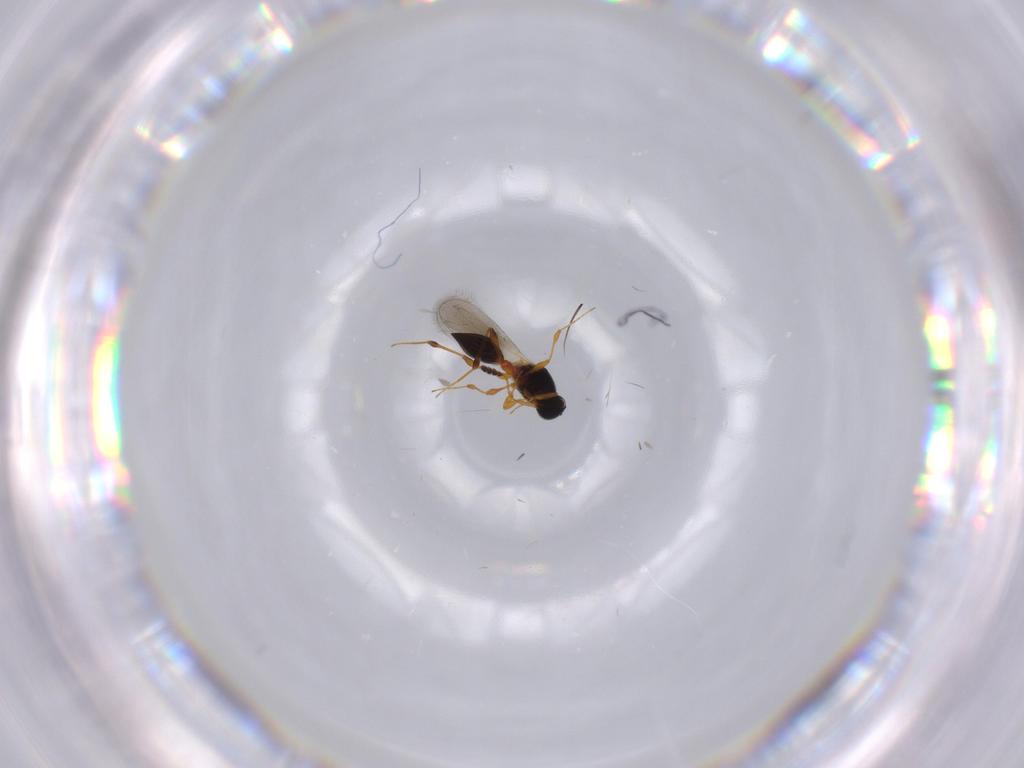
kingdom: Animalia
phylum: Arthropoda
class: Insecta
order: Hymenoptera
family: Platygastridae
